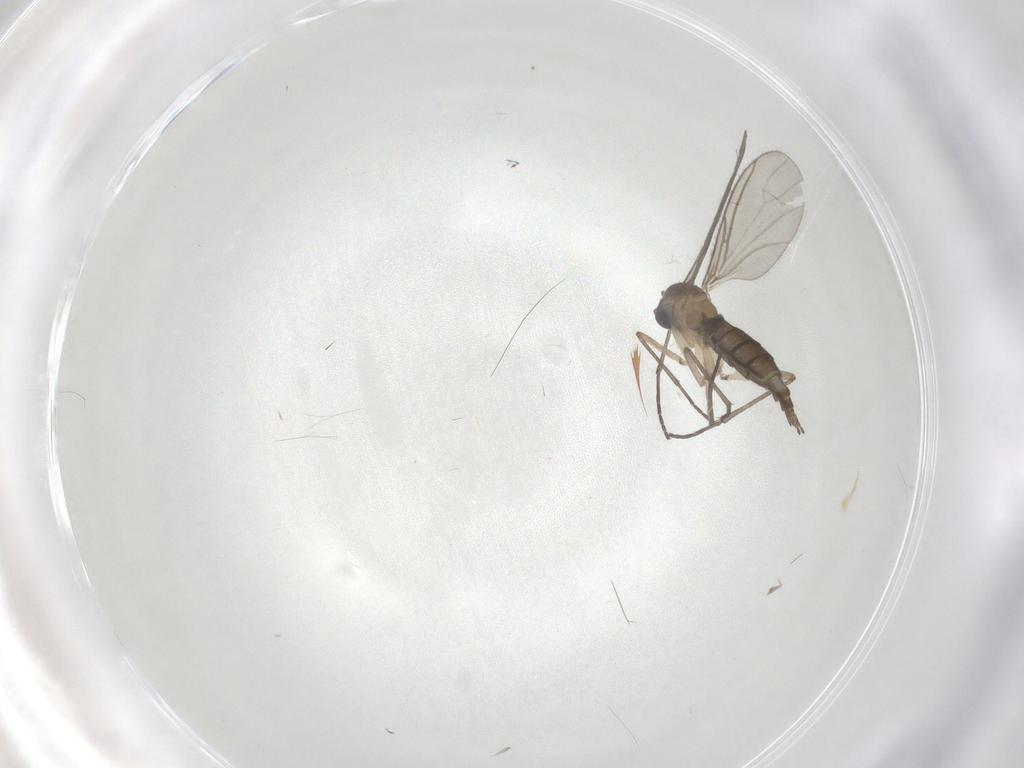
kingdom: Animalia
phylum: Arthropoda
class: Insecta
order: Diptera
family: Sciaridae
